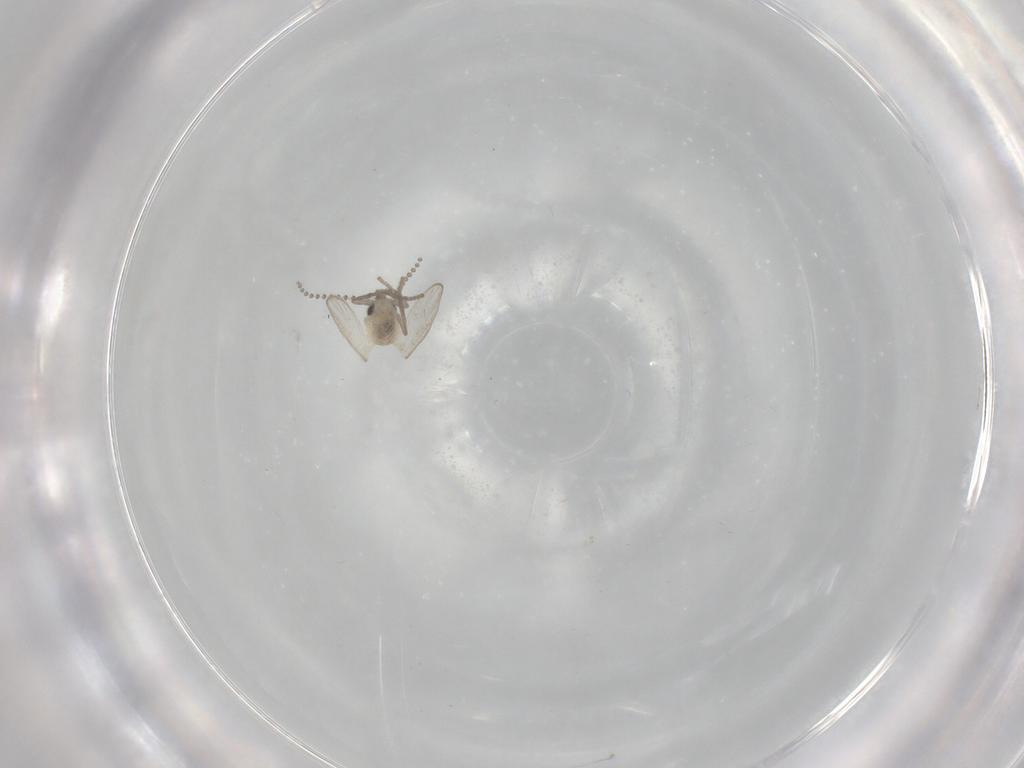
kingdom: Animalia
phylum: Arthropoda
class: Insecta
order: Diptera
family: Psychodidae
